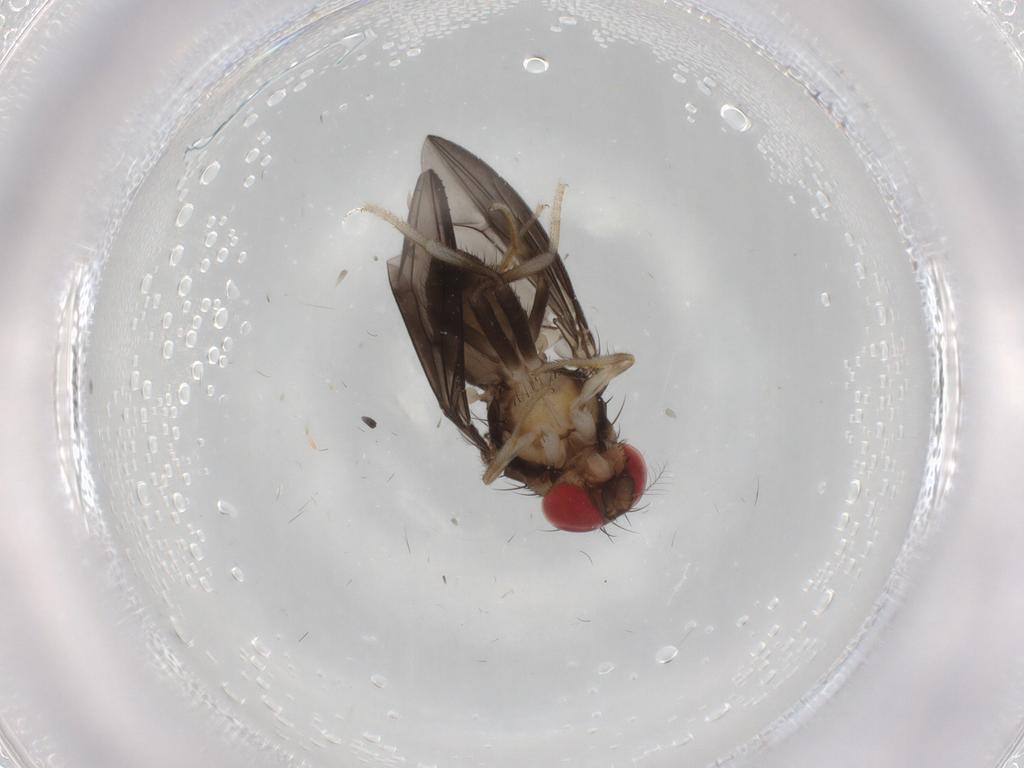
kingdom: Animalia
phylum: Arthropoda
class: Insecta
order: Diptera
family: Drosophilidae
